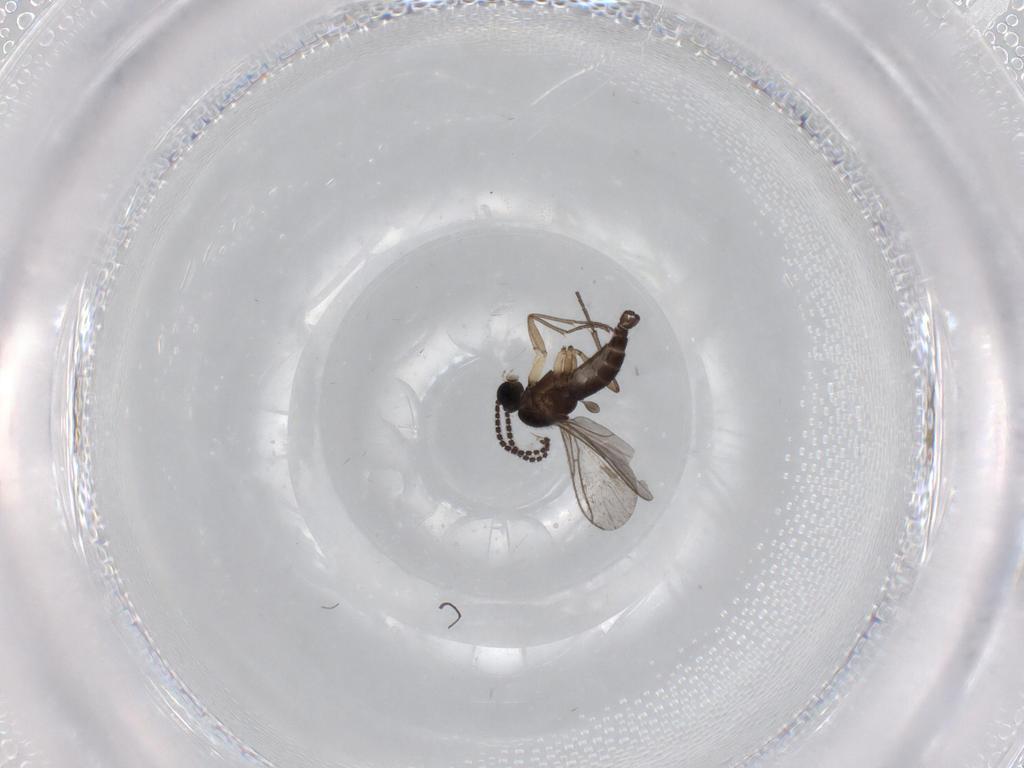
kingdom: Animalia
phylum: Arthropoda
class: Insecta
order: Diptera
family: Sciaridae
